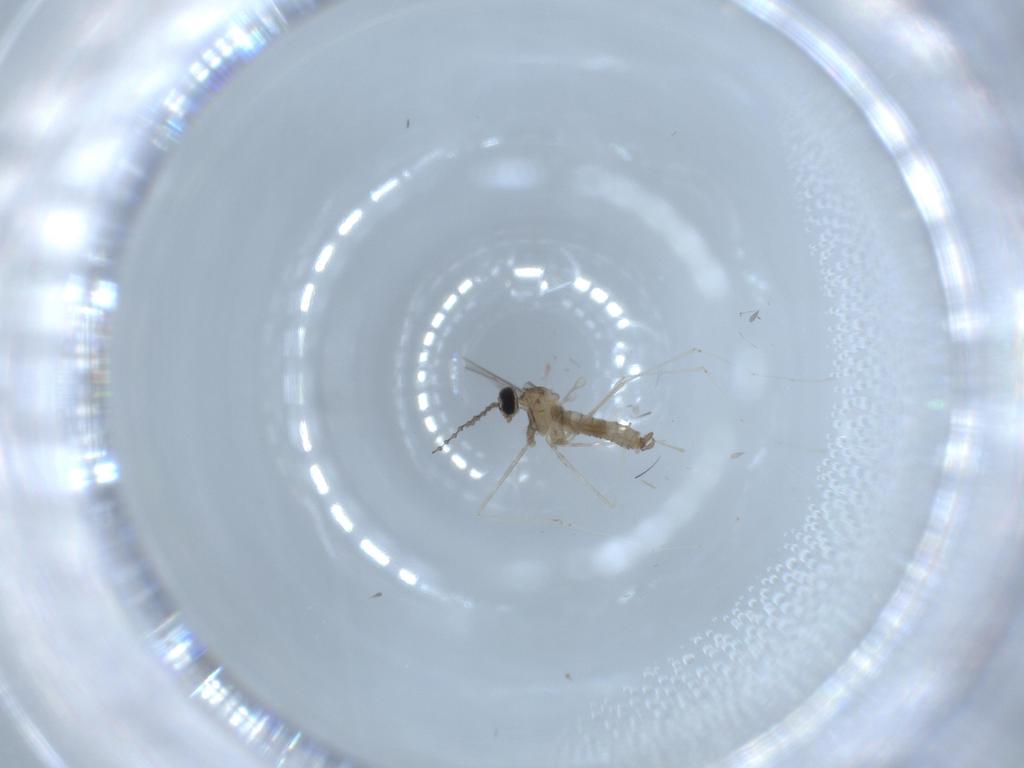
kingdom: Animalia
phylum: Arthropoda
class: Insecta
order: Diptera
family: Cecidomyiidae
